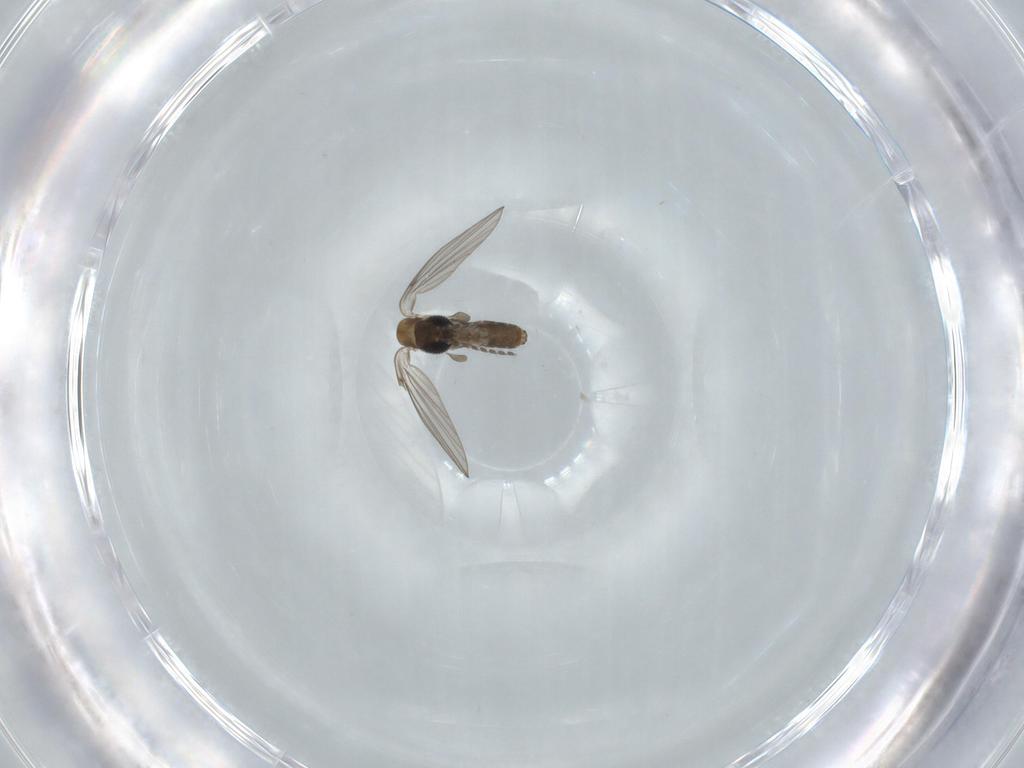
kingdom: Animalia
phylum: Arthropoda
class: Insecta
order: Diptera
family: Psychodidae
